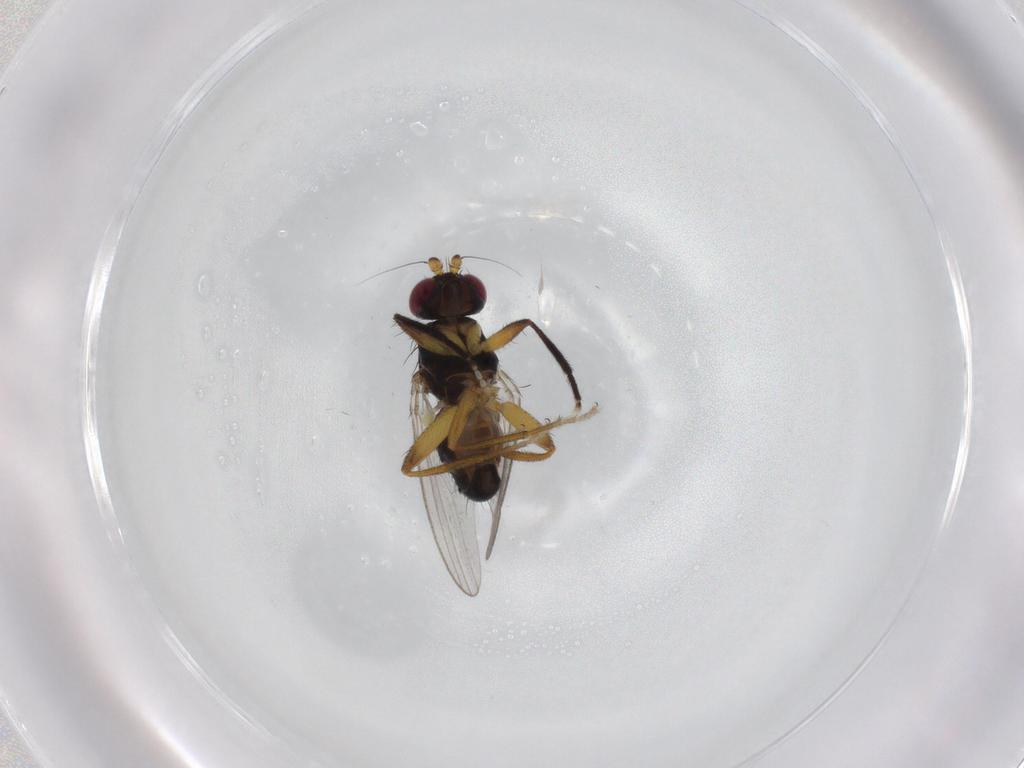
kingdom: Animalia
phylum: Arthropoda
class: Insecta
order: Diptera
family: Cypselosomatidae
